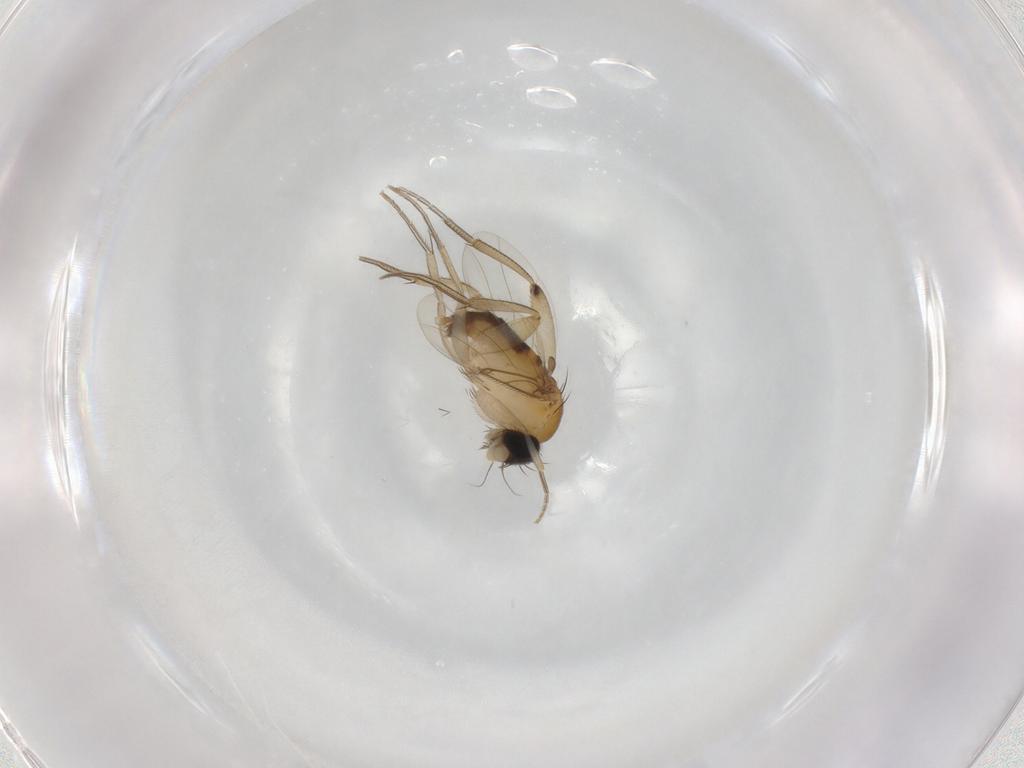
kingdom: Animalia
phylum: Arthropoda
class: Insecta
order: Diptera
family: Phoridae
